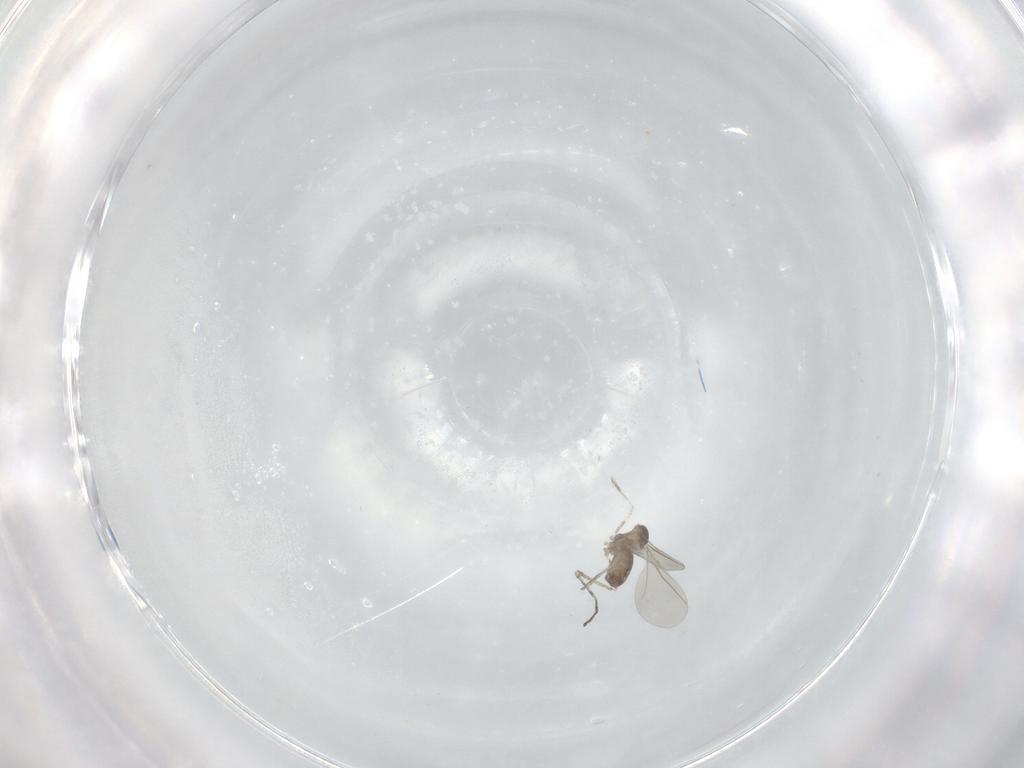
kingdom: Animalia
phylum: Arthropoda
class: Insecta
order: Diptera
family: Cecidomyiidae
